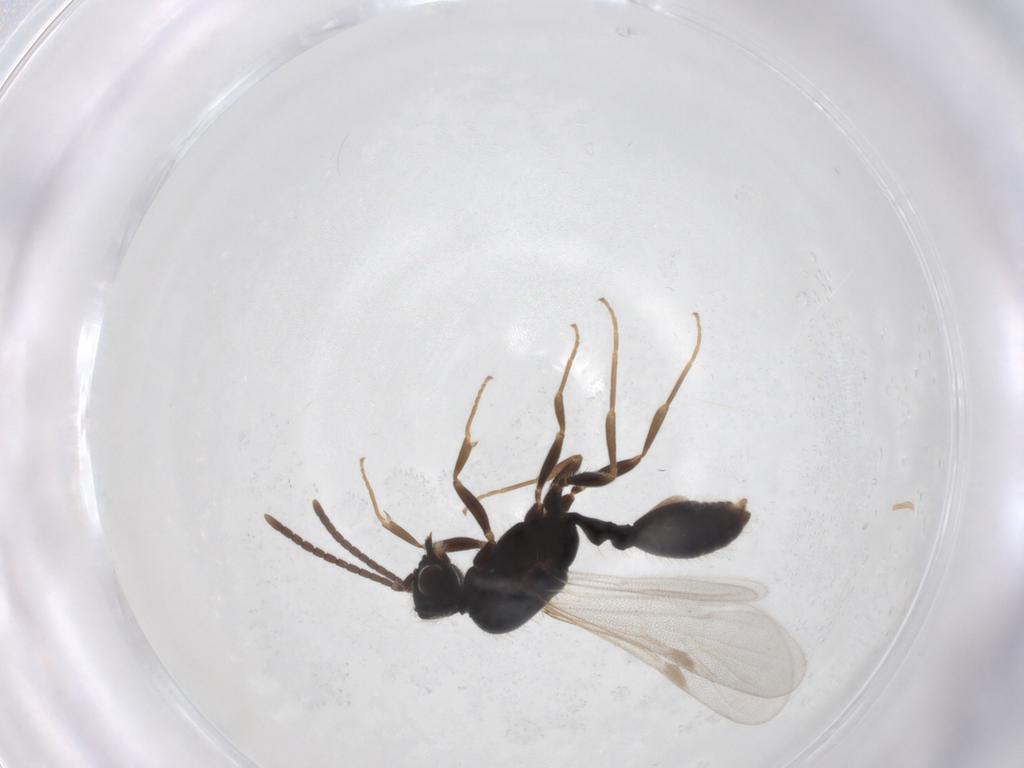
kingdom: Animalia
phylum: Arthropoda
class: Insecta
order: Hymenoptera
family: Formicidae
